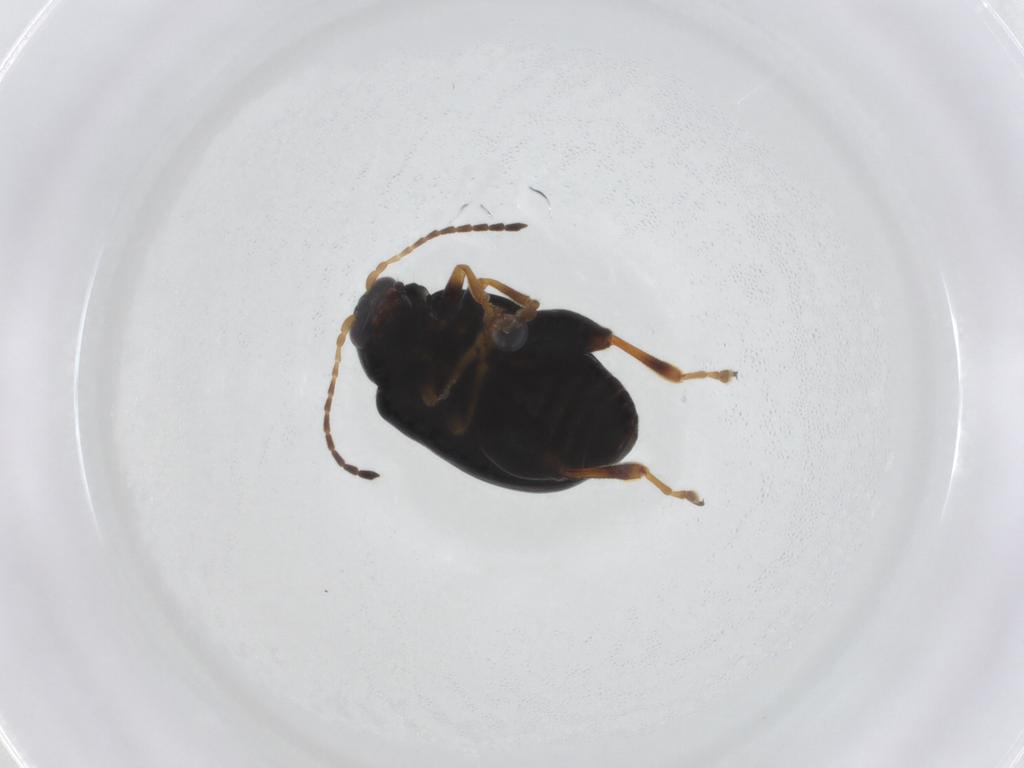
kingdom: Animalia
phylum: Arthropoda
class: Insecta
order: Coleoptera
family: Chrysomelidae
